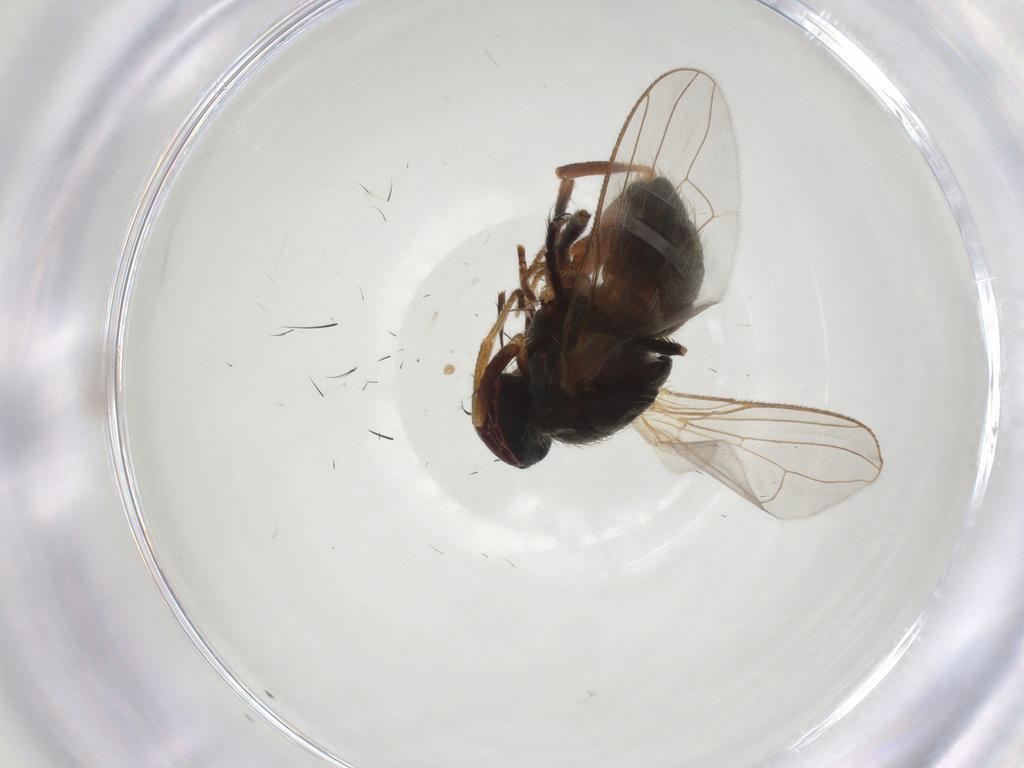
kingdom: Animalia
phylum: Arthropoda
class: Insecta
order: Diptera
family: Muscidae
